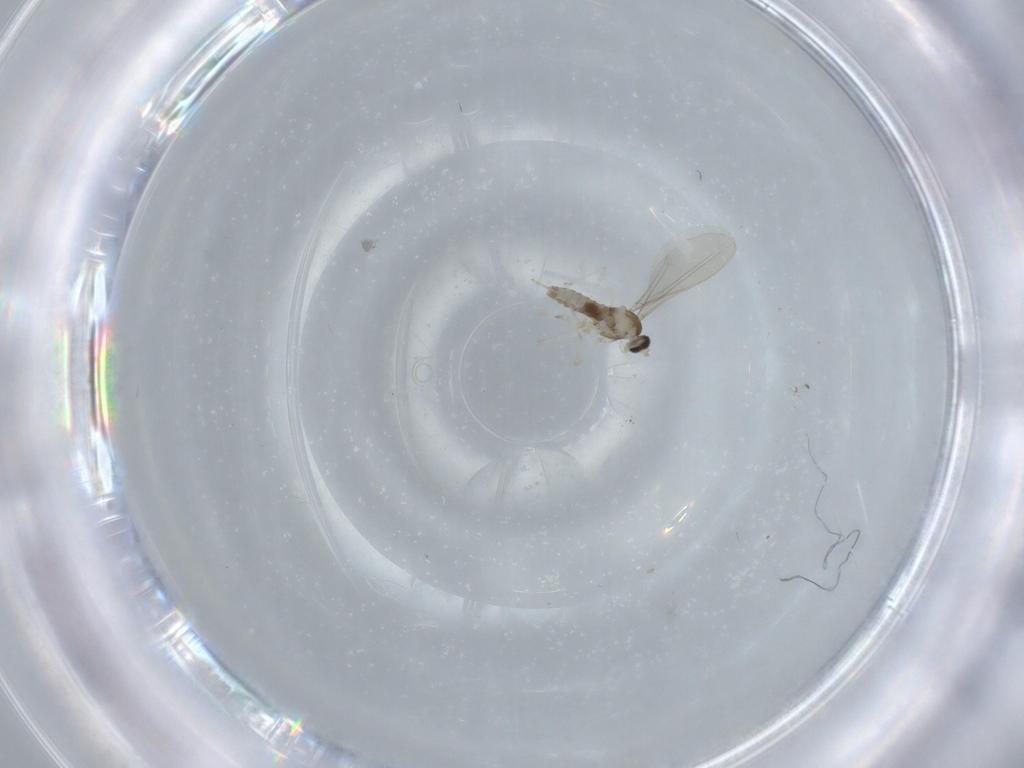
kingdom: Animalia
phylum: Arthropoda
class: Insecta
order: Diptera
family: Cecidomyiidae
